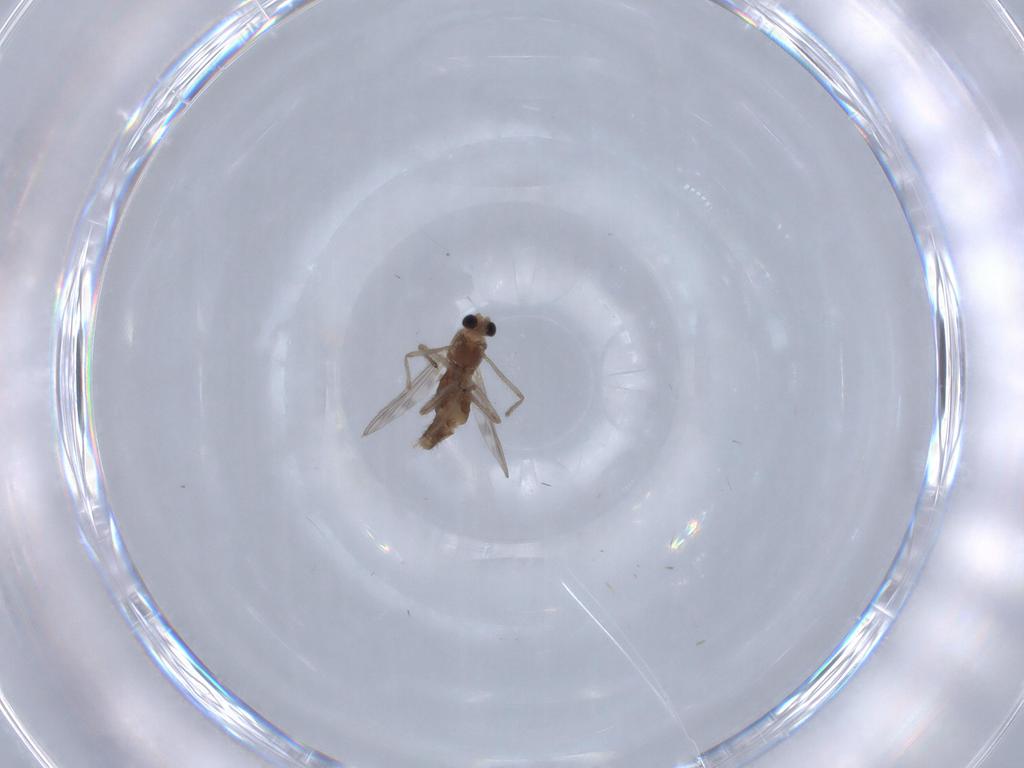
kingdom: Animalia
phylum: Arthropoda
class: Insecta
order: Diptera
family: Chironomidae
